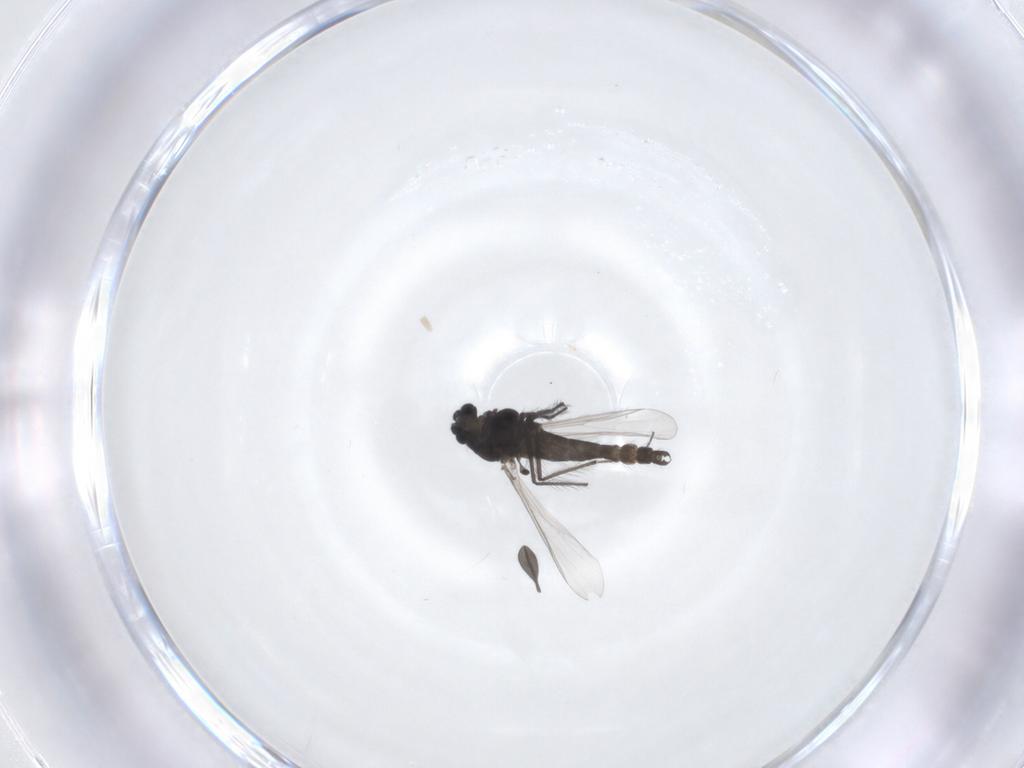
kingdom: Animalia
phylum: Arthropoda
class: Insecta
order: Diptera
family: Chironomidae
